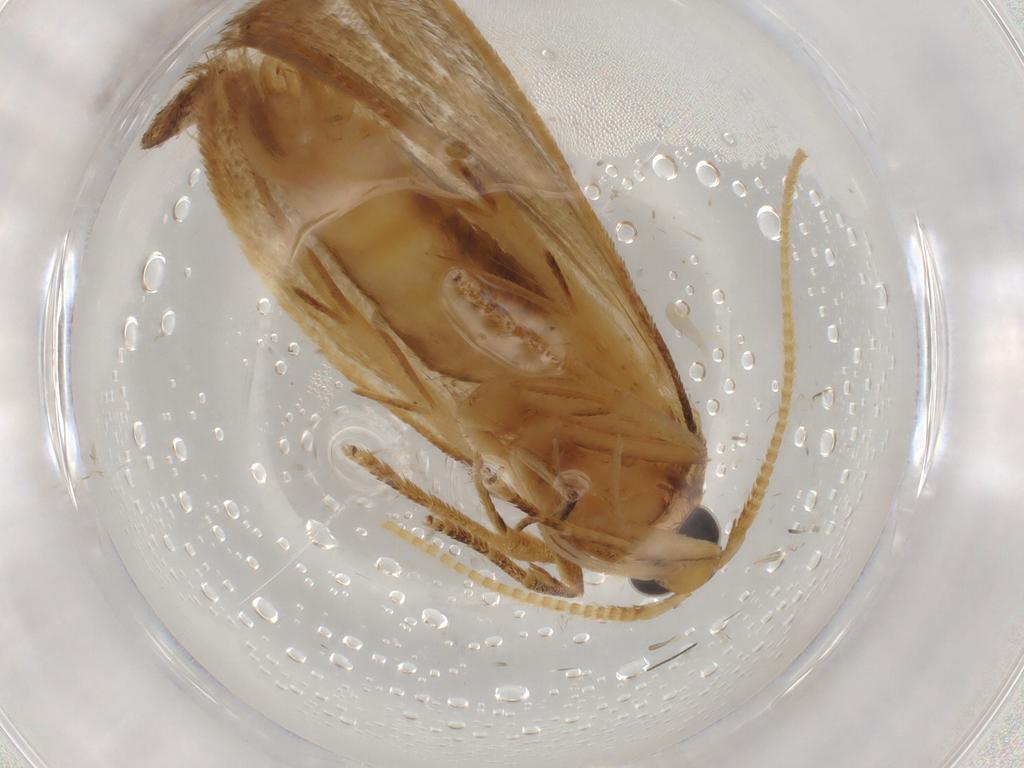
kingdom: Animalia
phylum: Arthropoda
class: Insecta
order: Lepidoptera
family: Lecithoceridae
